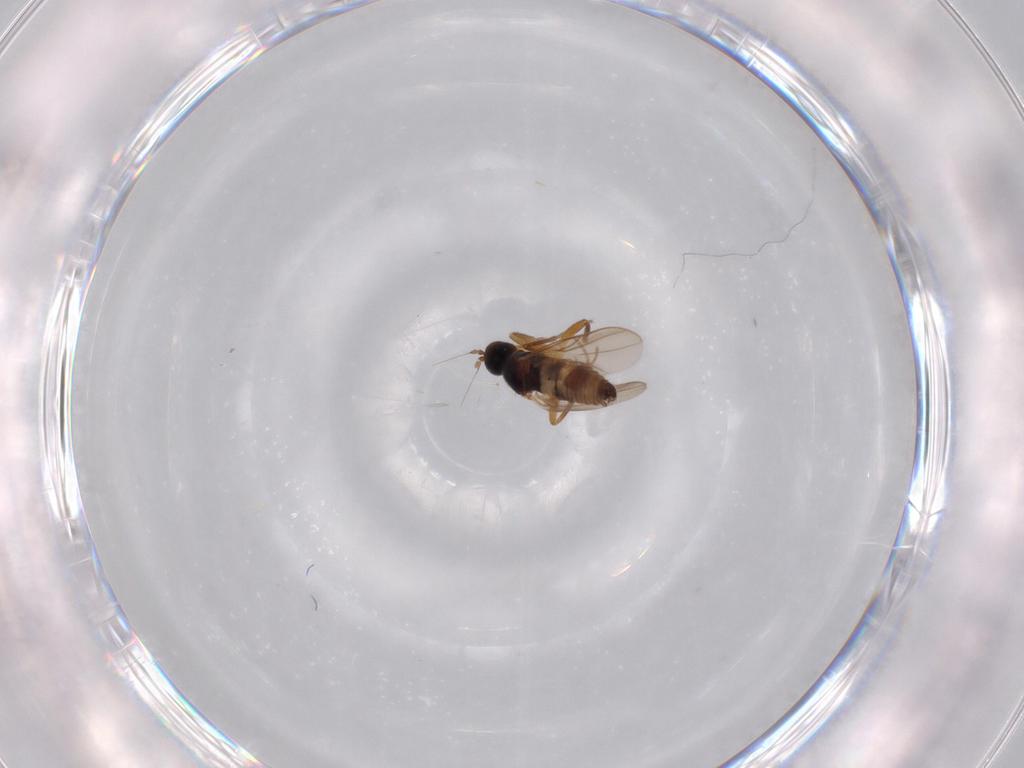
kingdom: Animalia
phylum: Arthropoda
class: Insecta
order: Diptera
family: Hybotidae
